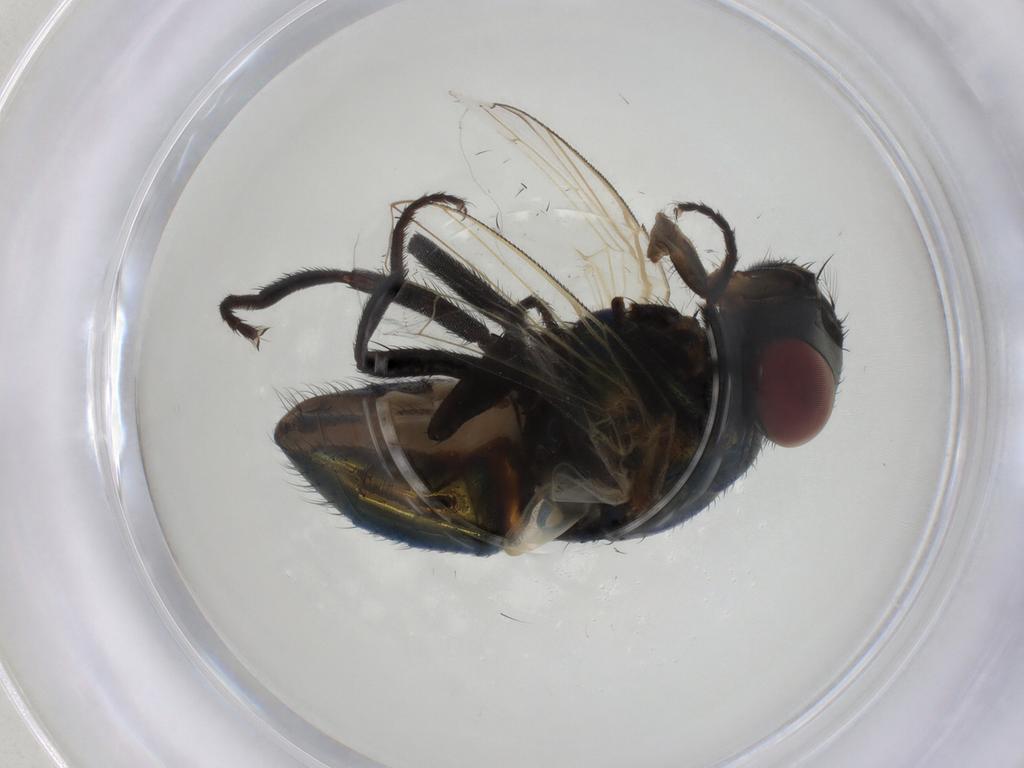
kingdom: Animalia
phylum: Arthropoda
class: Insecta
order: Diptera
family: Muscidae
